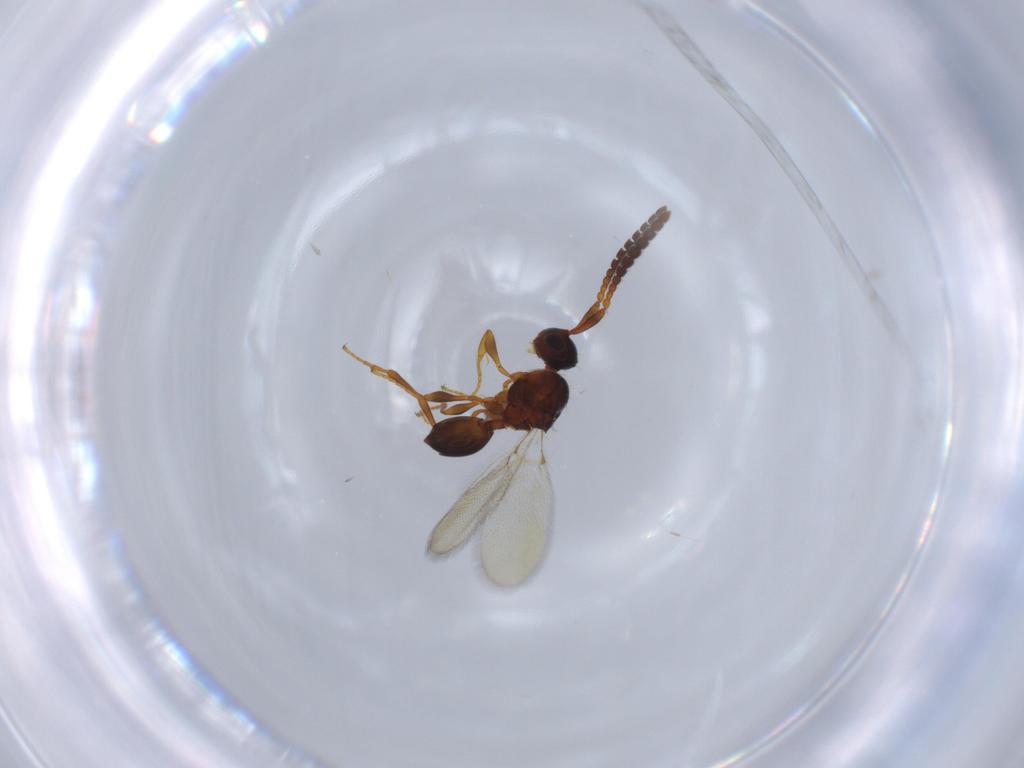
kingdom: Animalia
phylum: Arthropoda
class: Insecta
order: Hymenoptera
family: Diapriidae
